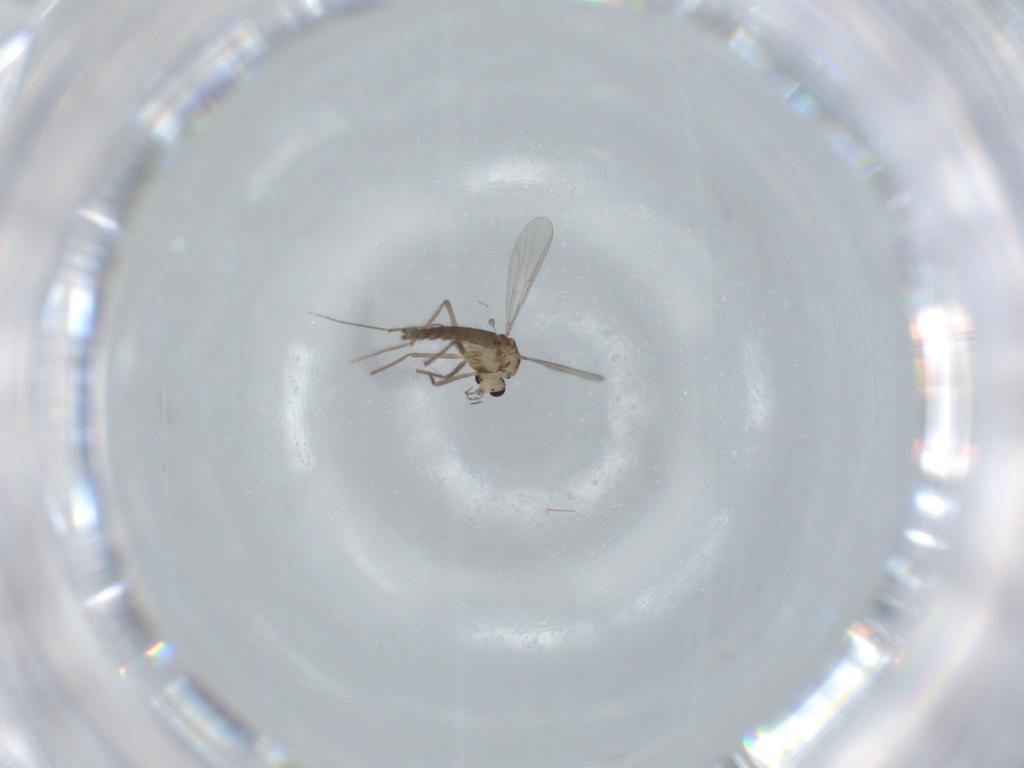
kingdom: Animalia
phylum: Arthropoda
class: Insecta
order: Diptera
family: Chironomidae
